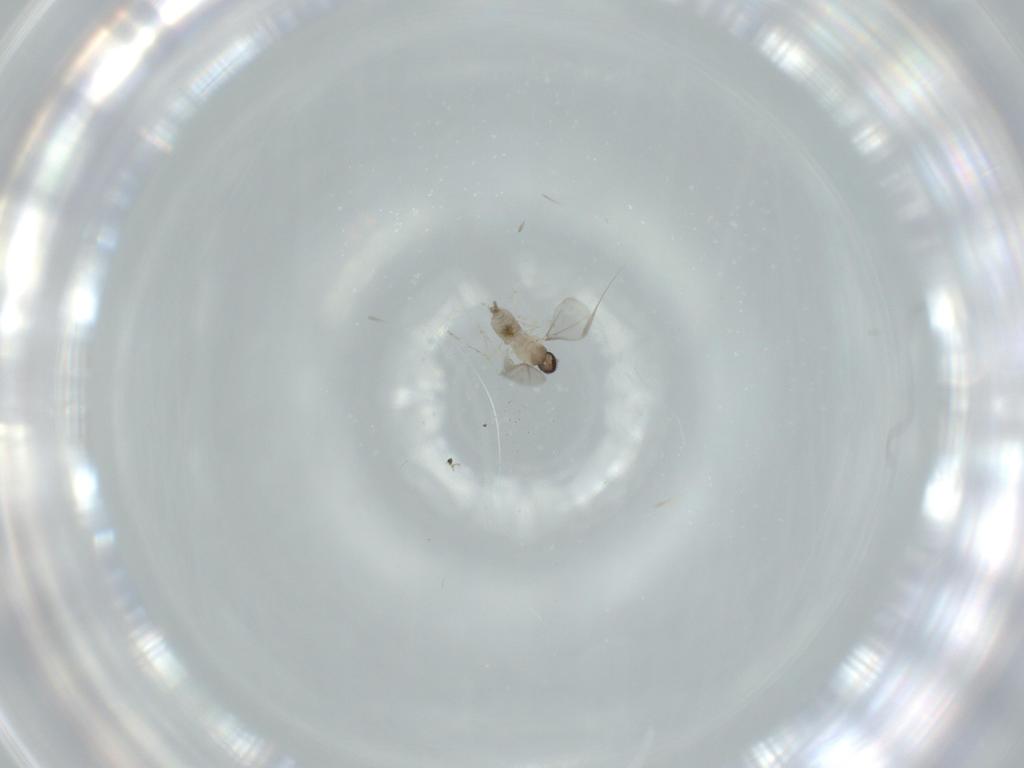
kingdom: Animalia
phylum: Arthropoda
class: Insecta
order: Diptera
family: Cecidomyiidae
